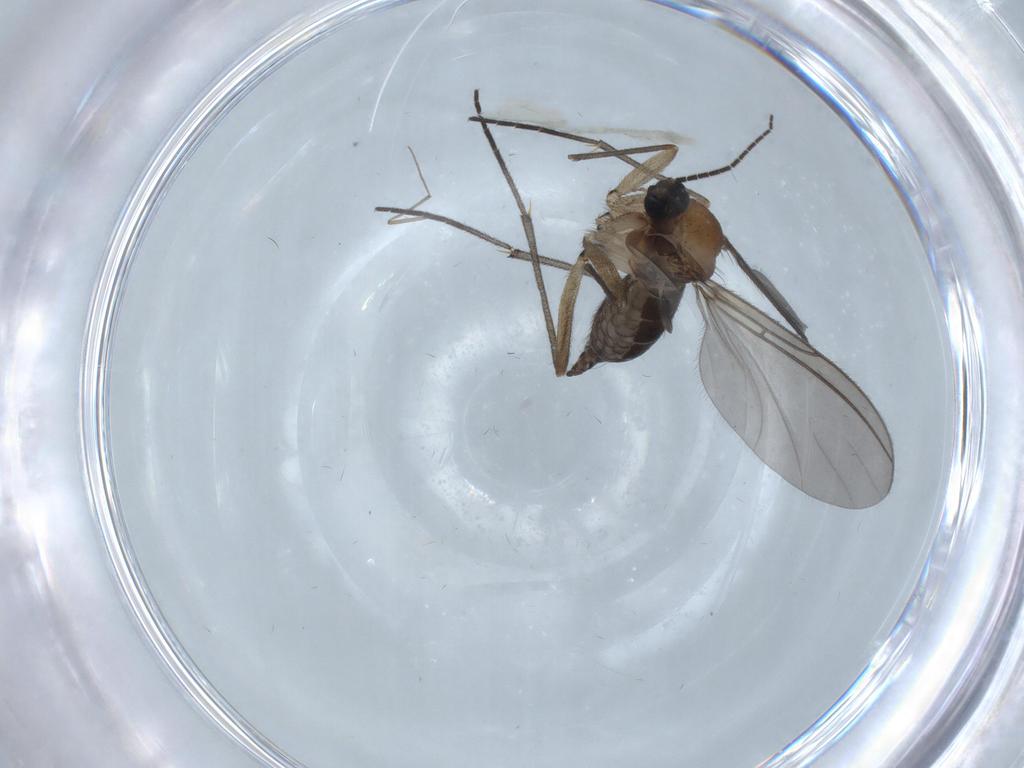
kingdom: Animalia
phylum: Arthropoda
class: Insecta
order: Diptera
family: Sciaridae
